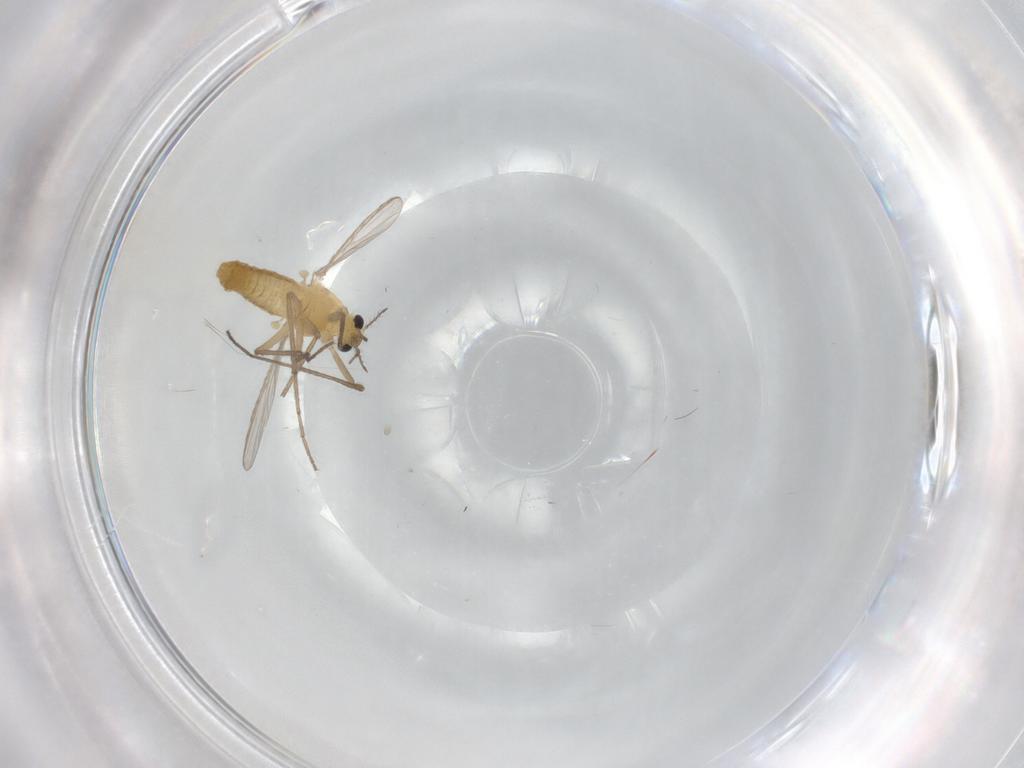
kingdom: Animalia
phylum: Arthropoda
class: Insecta
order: Diptera
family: Chironomidae
